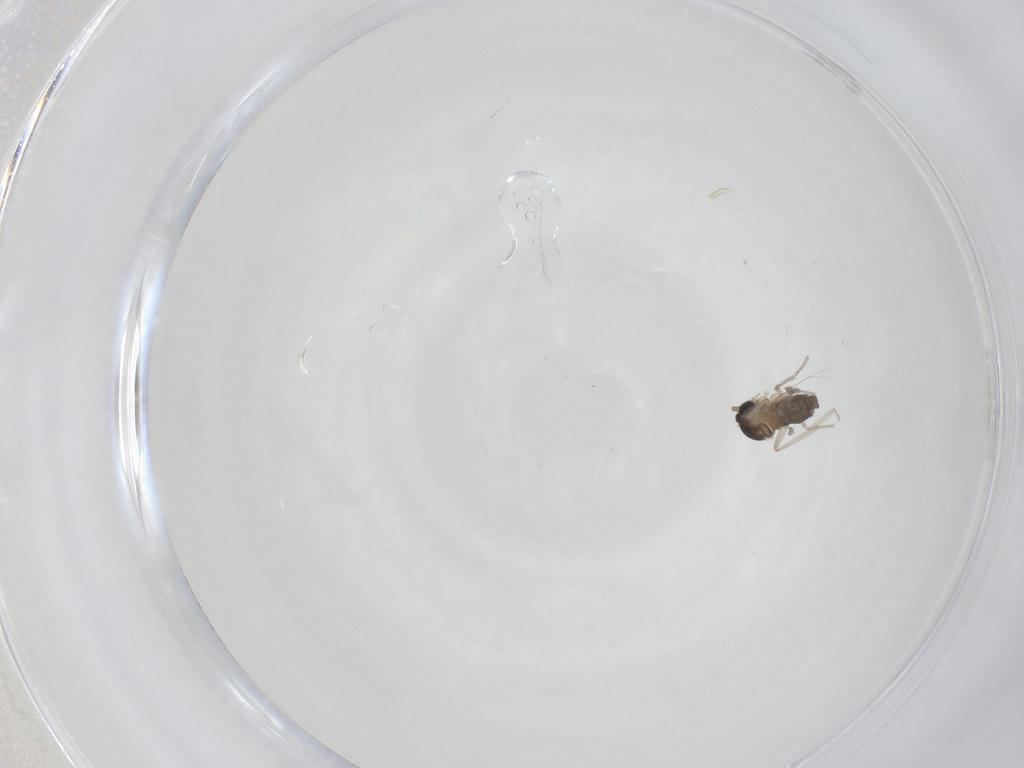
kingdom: Animalia
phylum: Arthropoda
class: Insecta
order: Diptera
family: Cecidomyiidae
